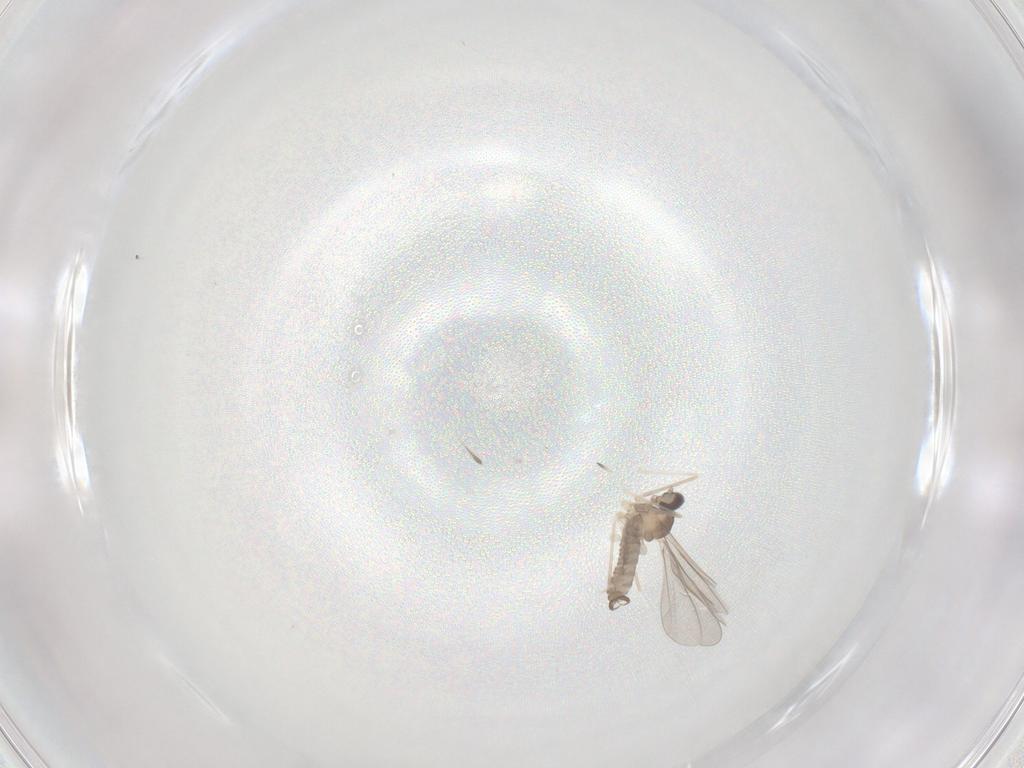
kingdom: Animalia
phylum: Arthropoda
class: Insecta
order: Diptera
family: Cecidomyiidae
